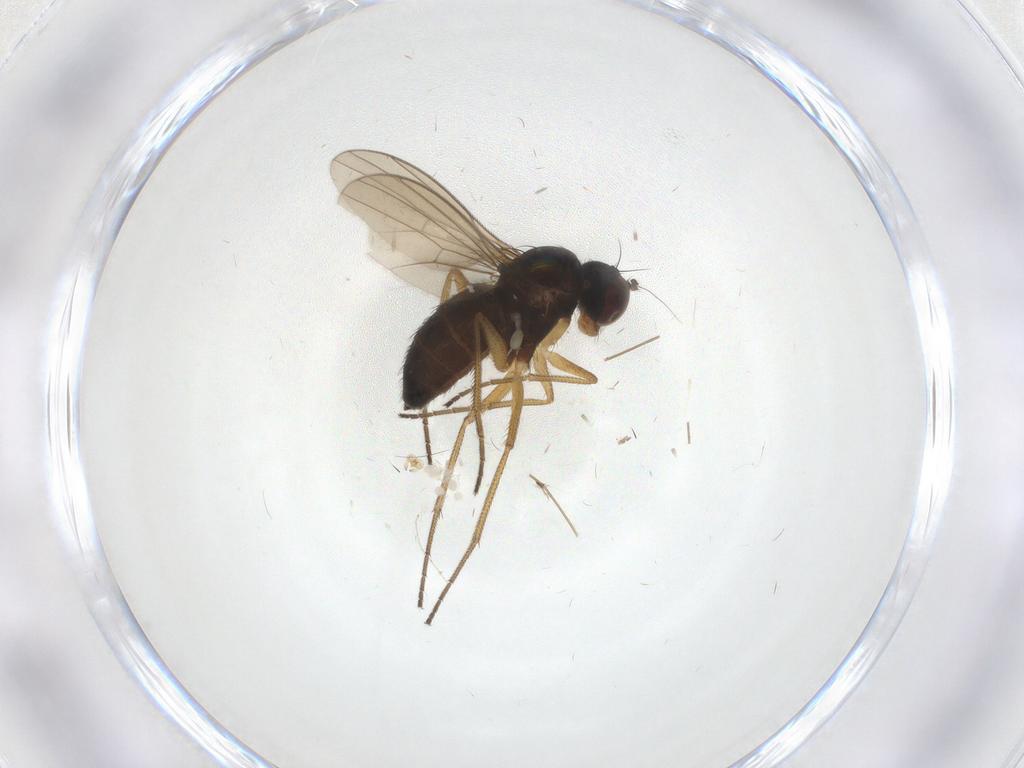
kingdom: Animalia
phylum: Arthropoda
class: Insecta
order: Diptera
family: Dolichopodidae
